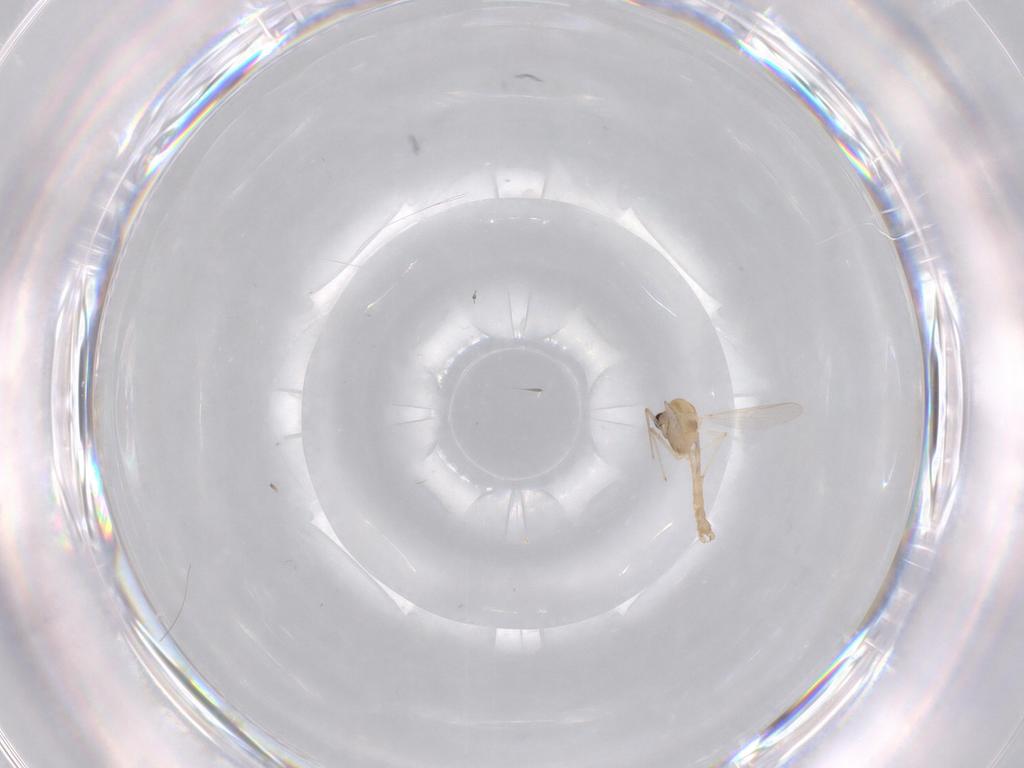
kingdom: Animalia
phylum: Arthropoda
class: Insecta
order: Diptera
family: Chironomidae
